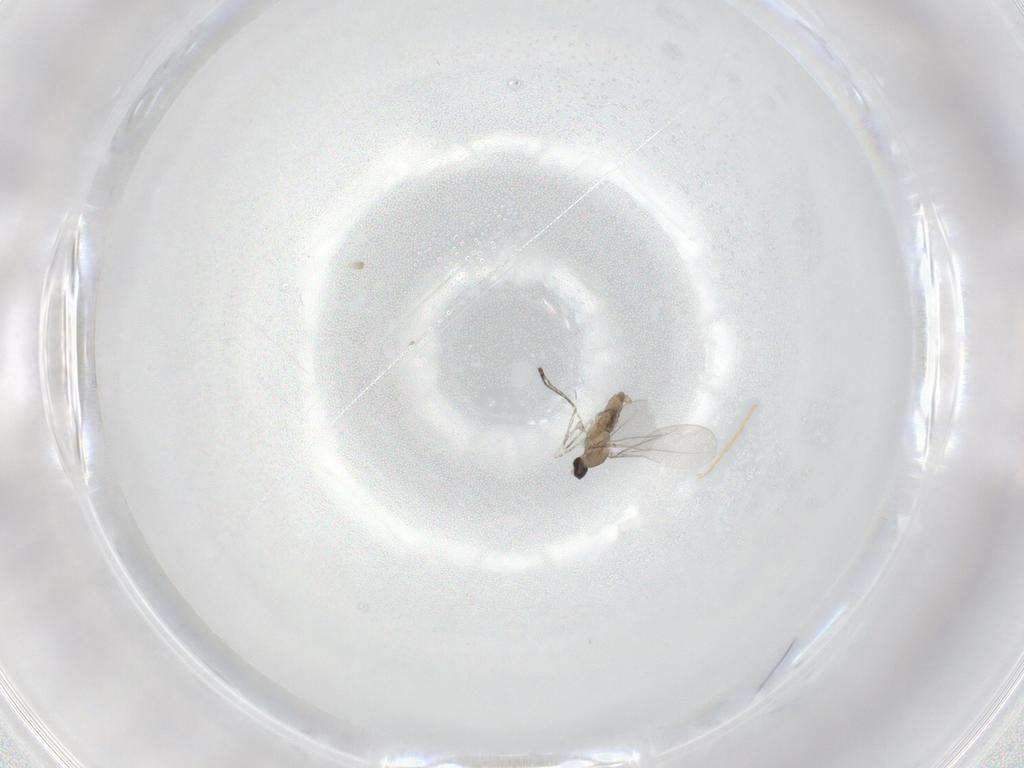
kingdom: Animalia
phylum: Arthropoda
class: Insecta
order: Diptera
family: Cecidomyiidae
